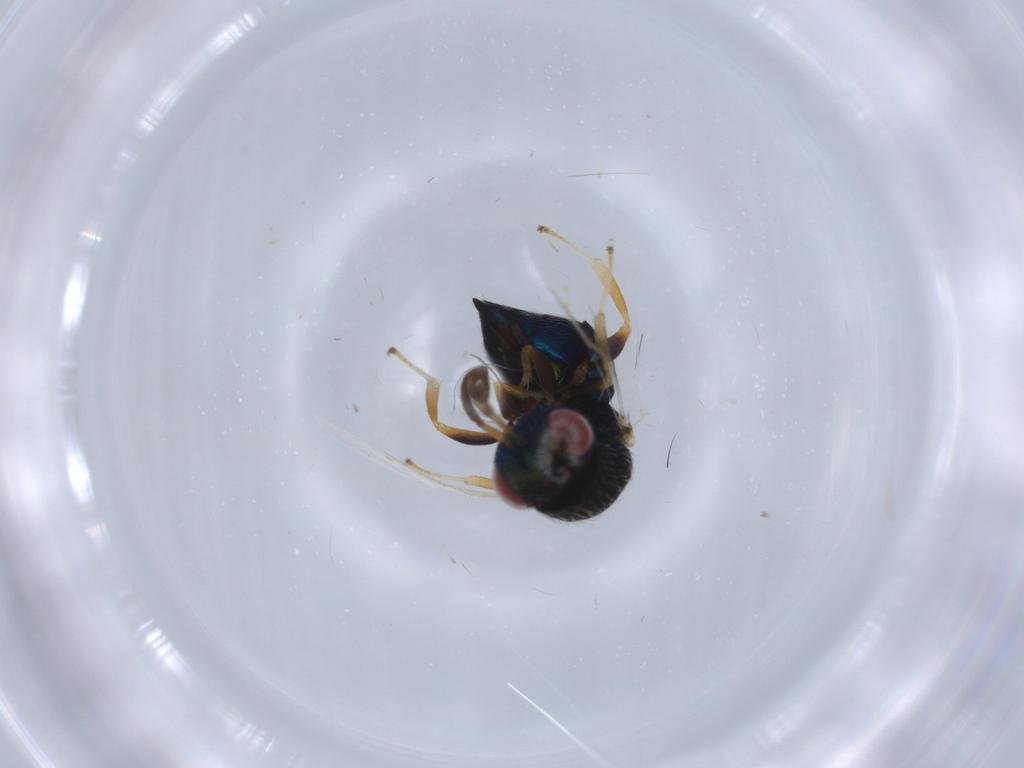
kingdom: Animalia
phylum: Arthropoda
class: Insecta
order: Hymenoptera
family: Pteromalidae
